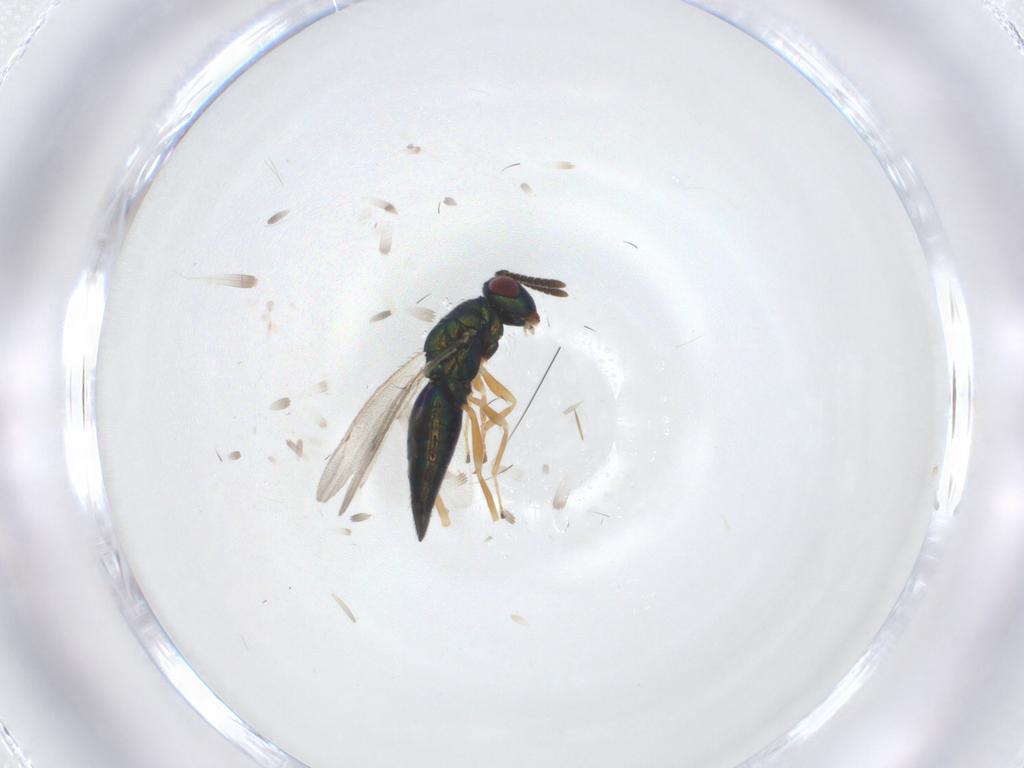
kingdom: Animalia
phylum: Arthropoda
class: Insecta
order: Hymenoptera
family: Pteromalidae
